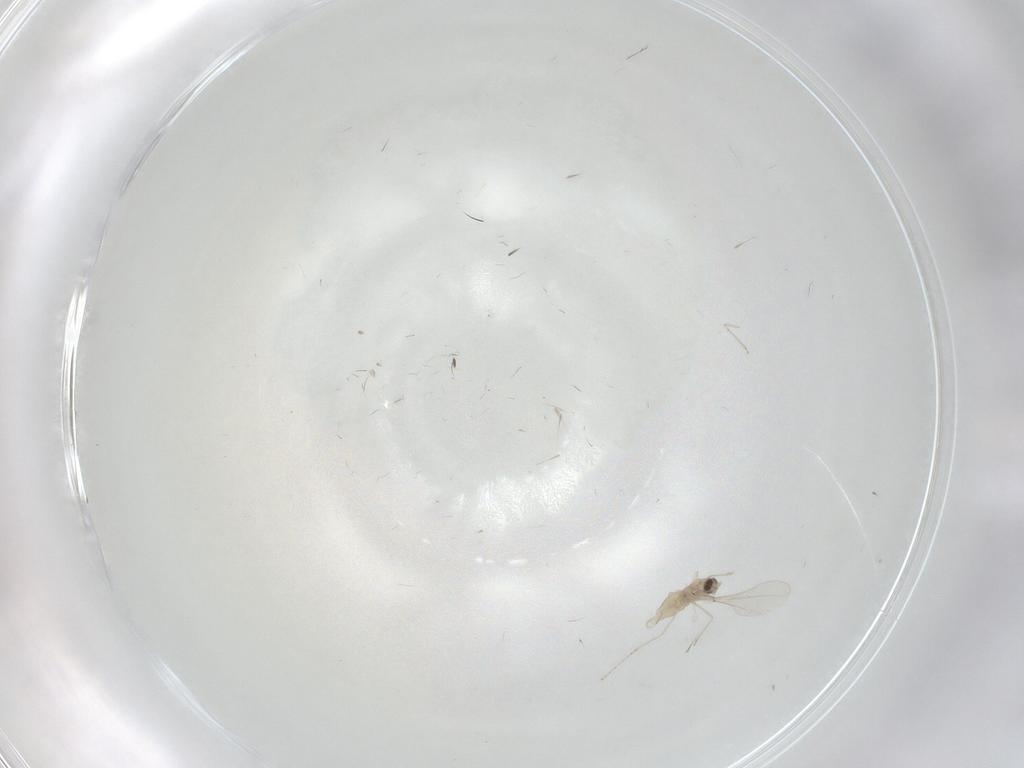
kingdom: Animalia
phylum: Arthropoda
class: Insecta
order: Diptera
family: Cecidomyiidae
